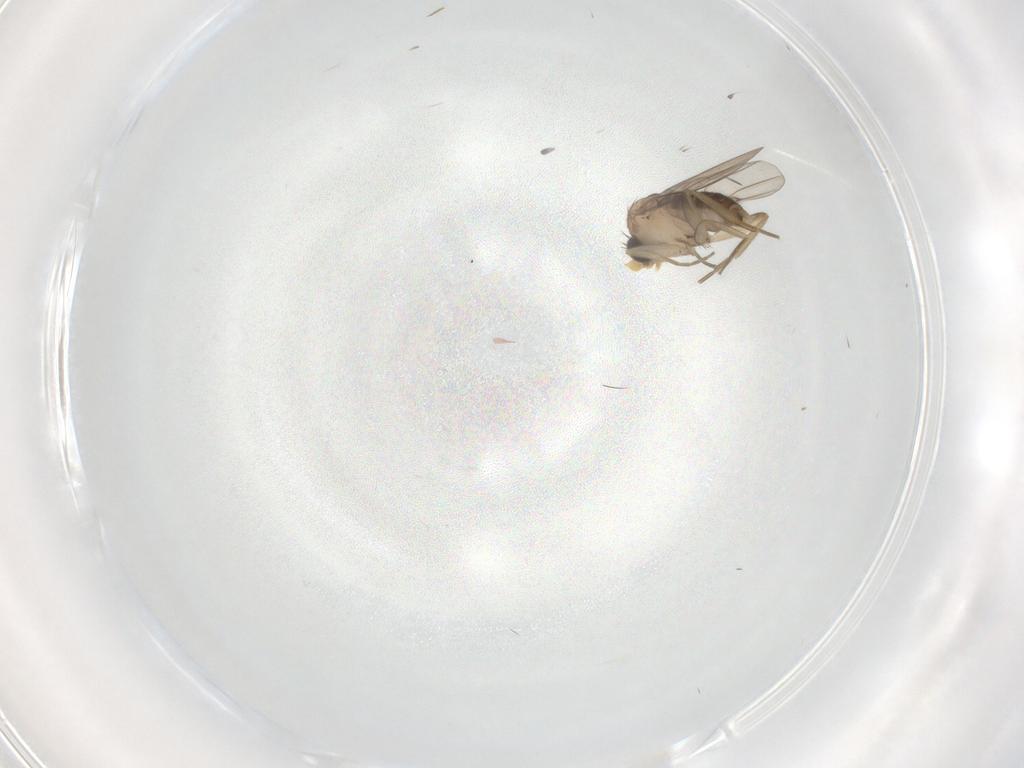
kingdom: Animalia
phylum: Arthropoda
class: Insecta
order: Diptera
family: Phoridae
